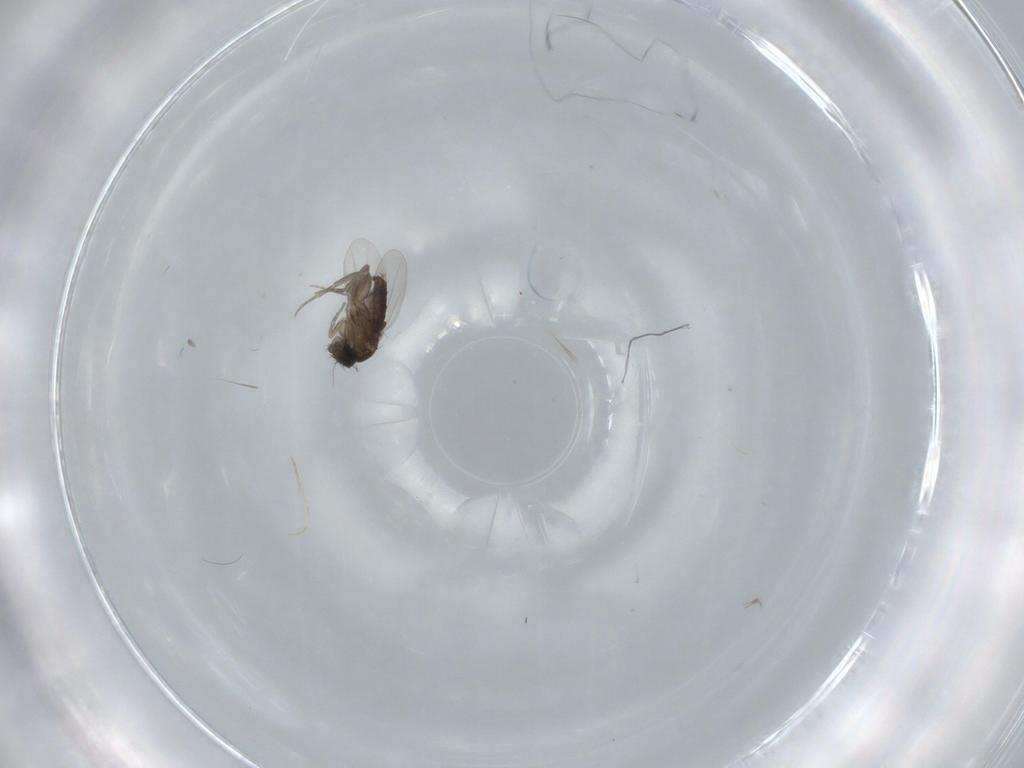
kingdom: Animalia
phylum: Arthropoda
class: Insecta
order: Diptera
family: Phoridae
